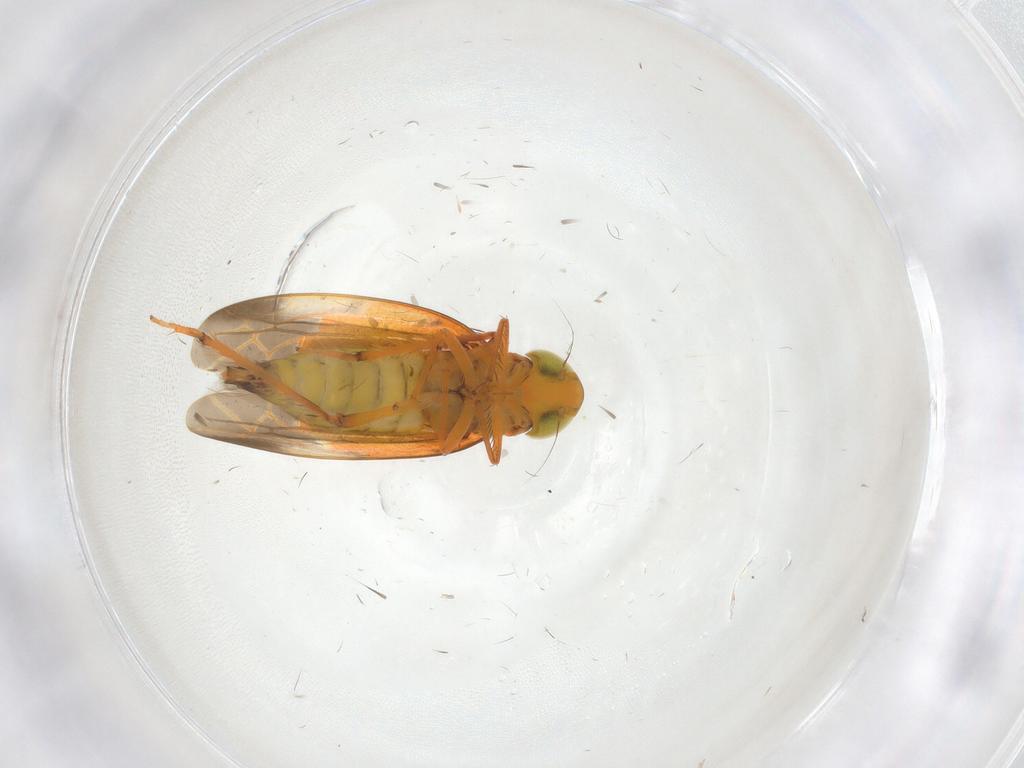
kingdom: Animalia
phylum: Arthropoda
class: Insecta
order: Hemiptera
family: Cicadellidae
